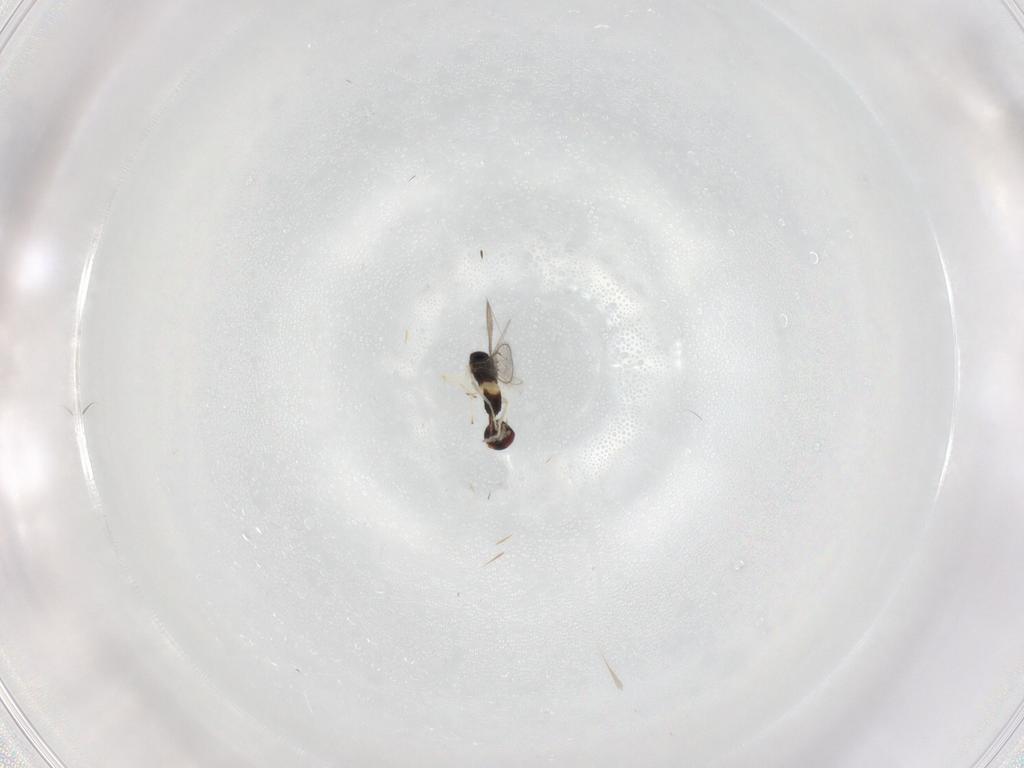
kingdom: Animalia
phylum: Arthropoda
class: Insecta
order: Hymenoptera
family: Eulophidae
